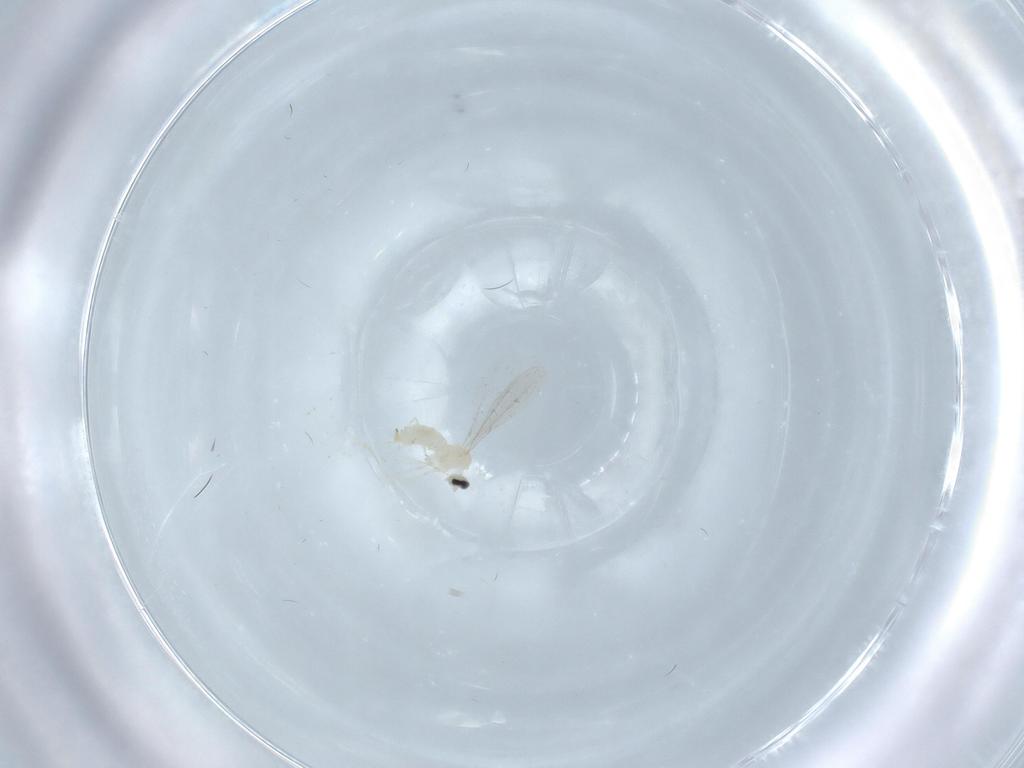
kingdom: Animalia
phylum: Arthropoda
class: Insecta
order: Diptera
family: Cecidomyiidae
